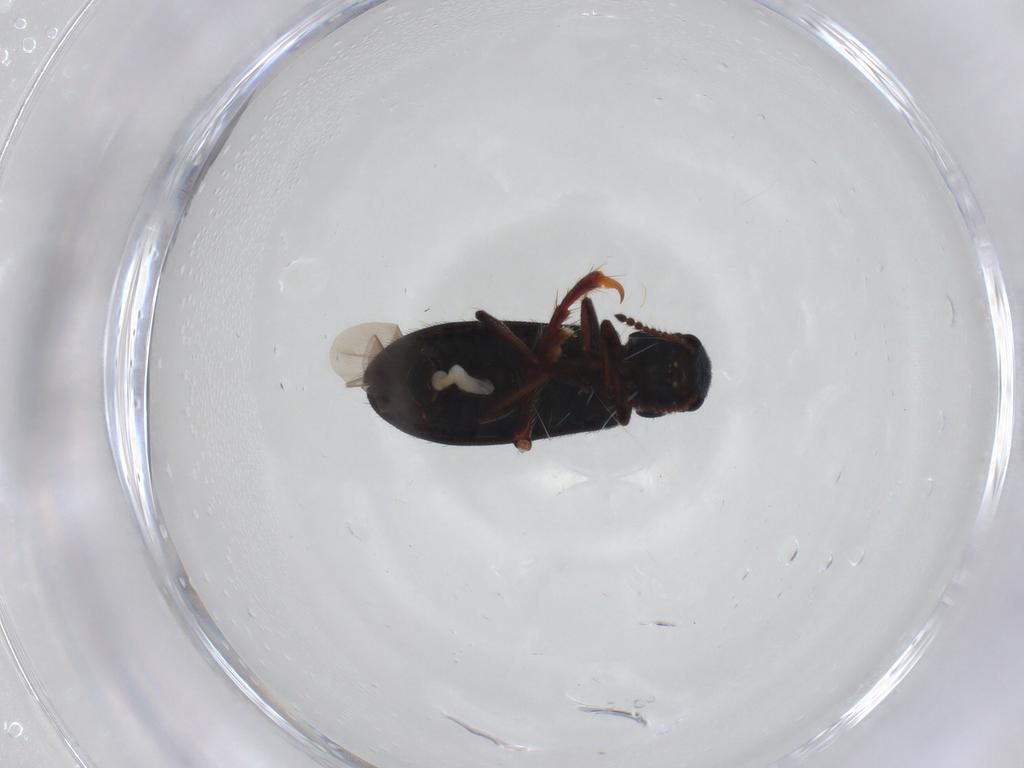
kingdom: Animalia
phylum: Arthropoda
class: Insecta
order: Coleoptera
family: Melyridae
